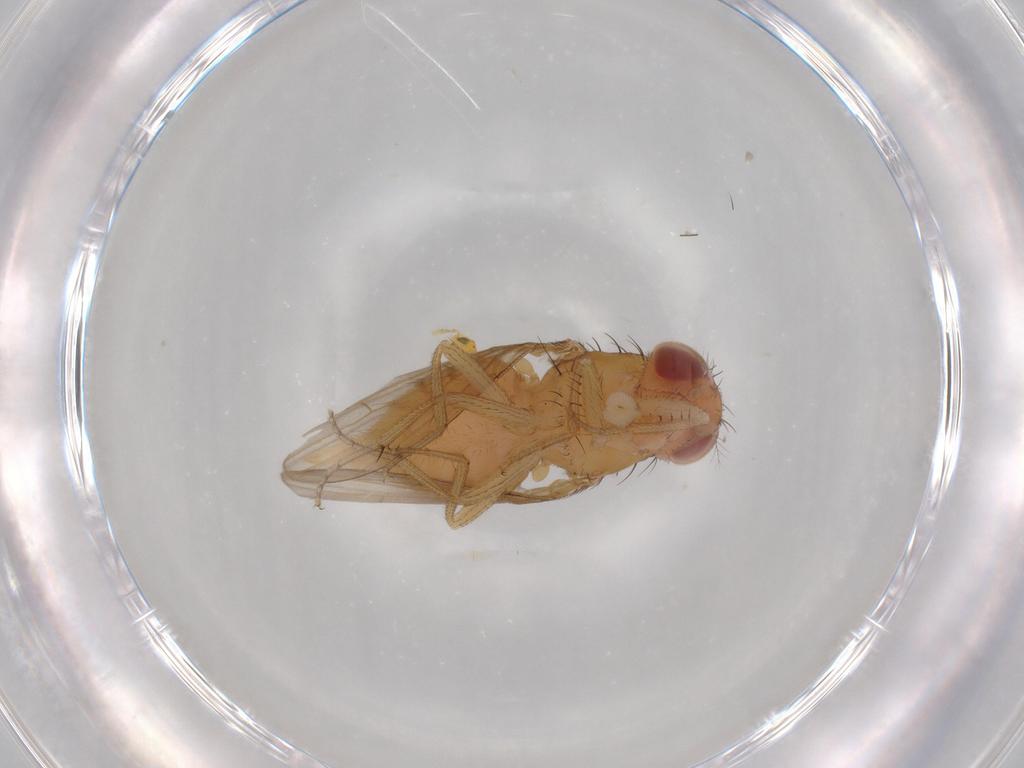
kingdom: Animalia
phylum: Arthropoda
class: Insecta
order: Diptera
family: Drosophilidae
